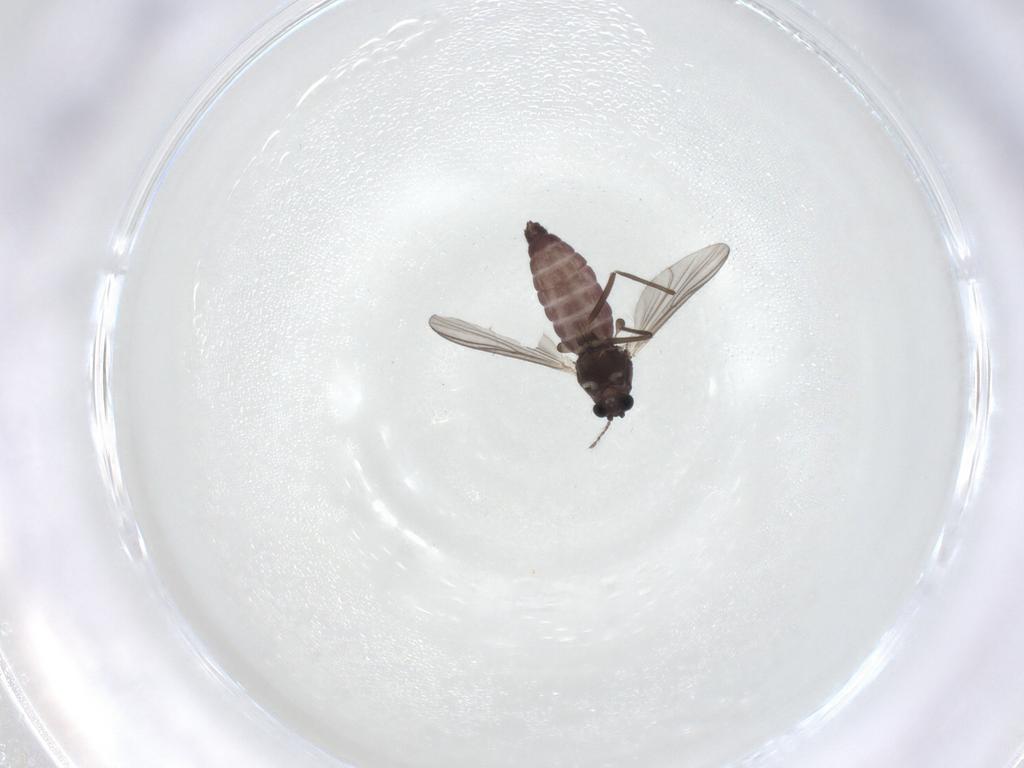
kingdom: Animalia
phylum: Arthropoda
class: Insecta
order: Diptera
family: Chironomidae
